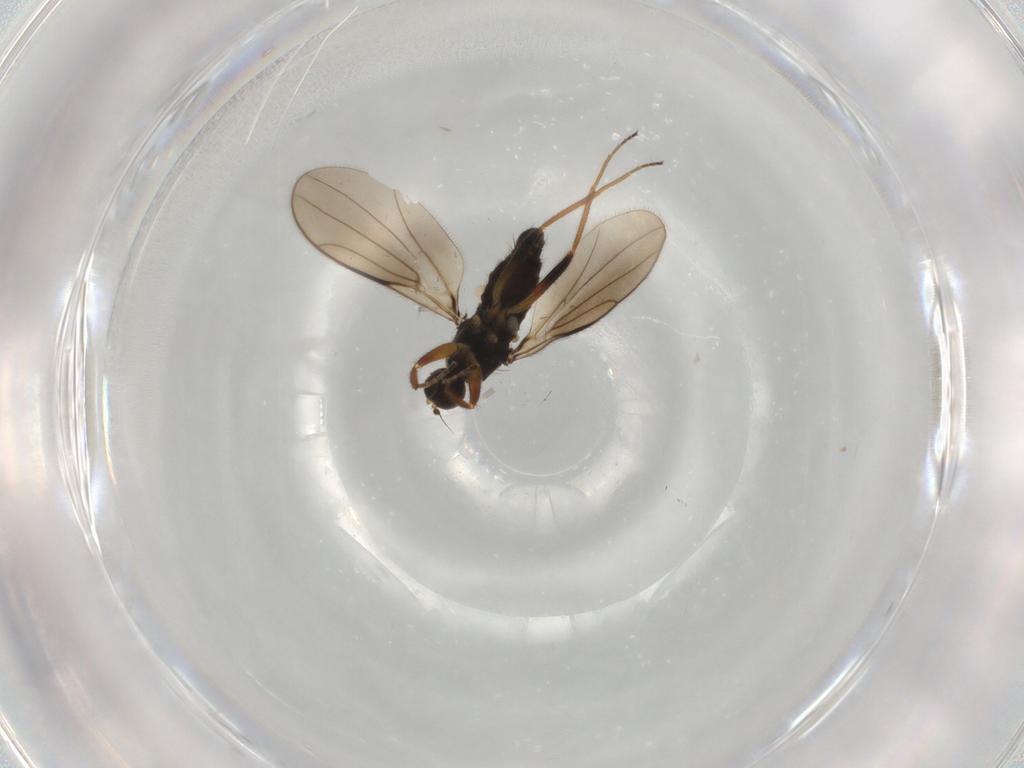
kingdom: Animalia
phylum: Arthropoda
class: Insecta
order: Diptera
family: Hybotidae
